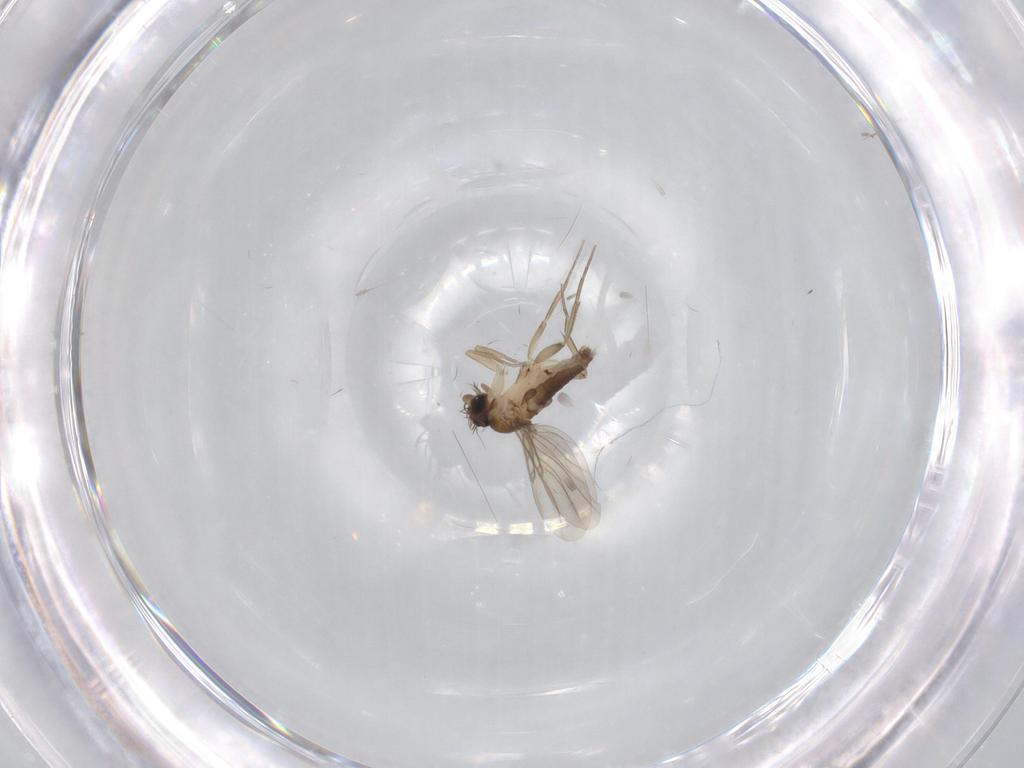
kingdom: Animalia
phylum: Arthropoda
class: Insecta
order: Diptera
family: Phoridae
